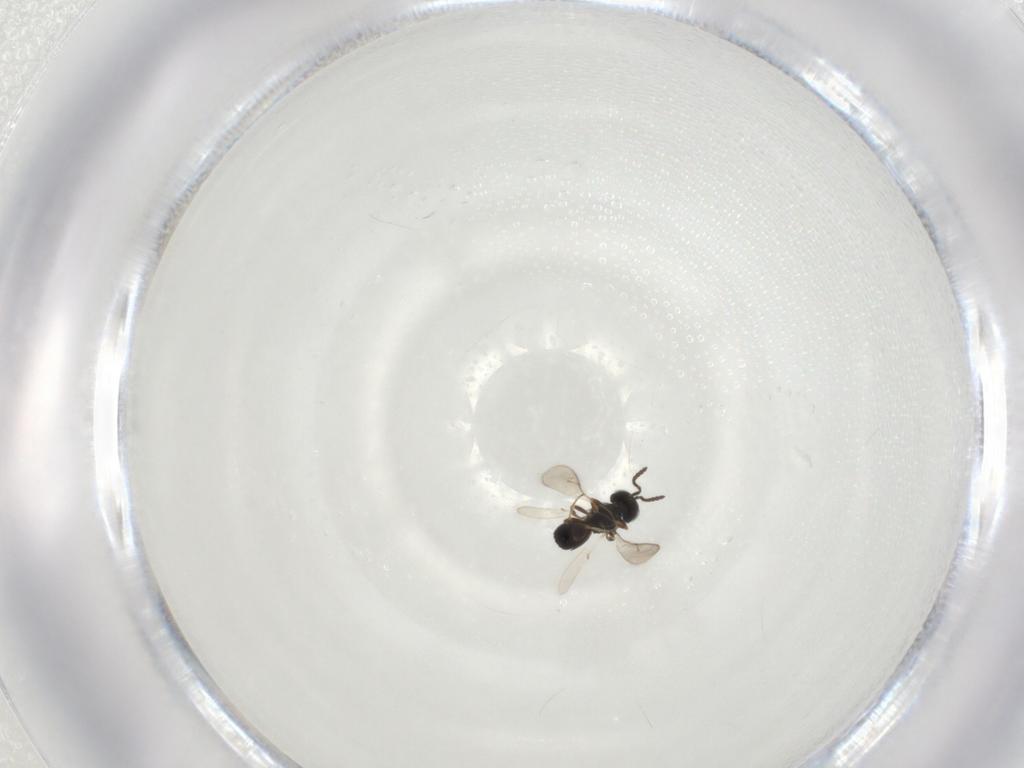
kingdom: Animalia
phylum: Arthropoda
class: Insecta
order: Hymenoptera
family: Scelionidae
